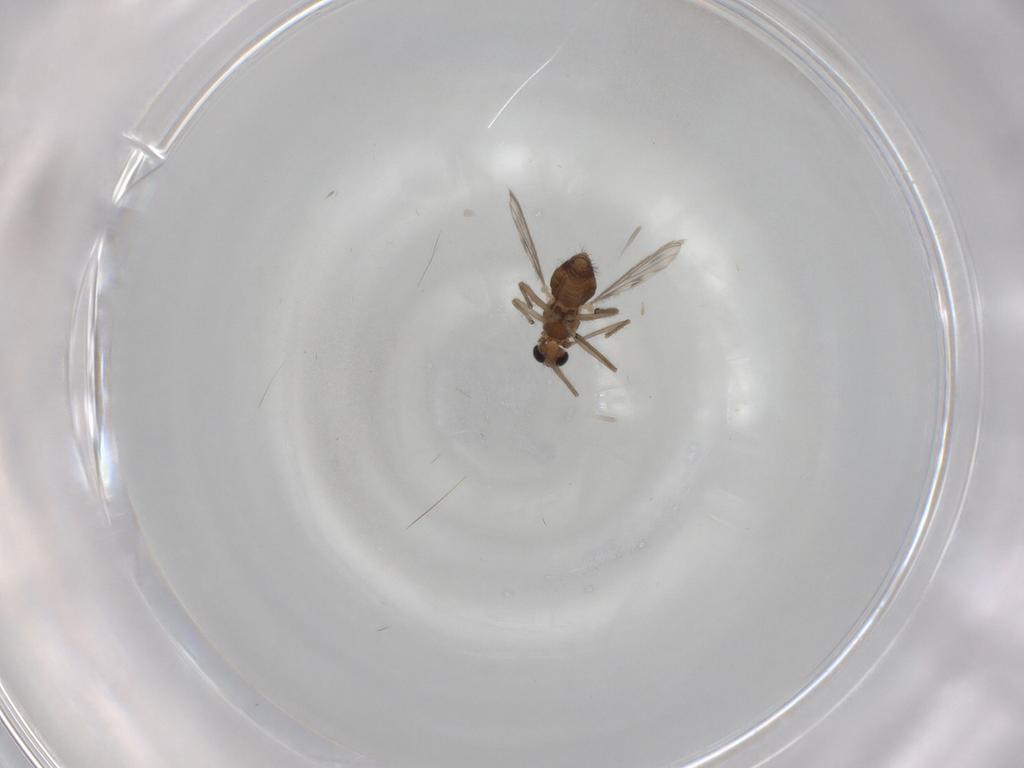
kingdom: Animalia
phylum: Arthropoda
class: Insecta
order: Diptera
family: Chironomidae
